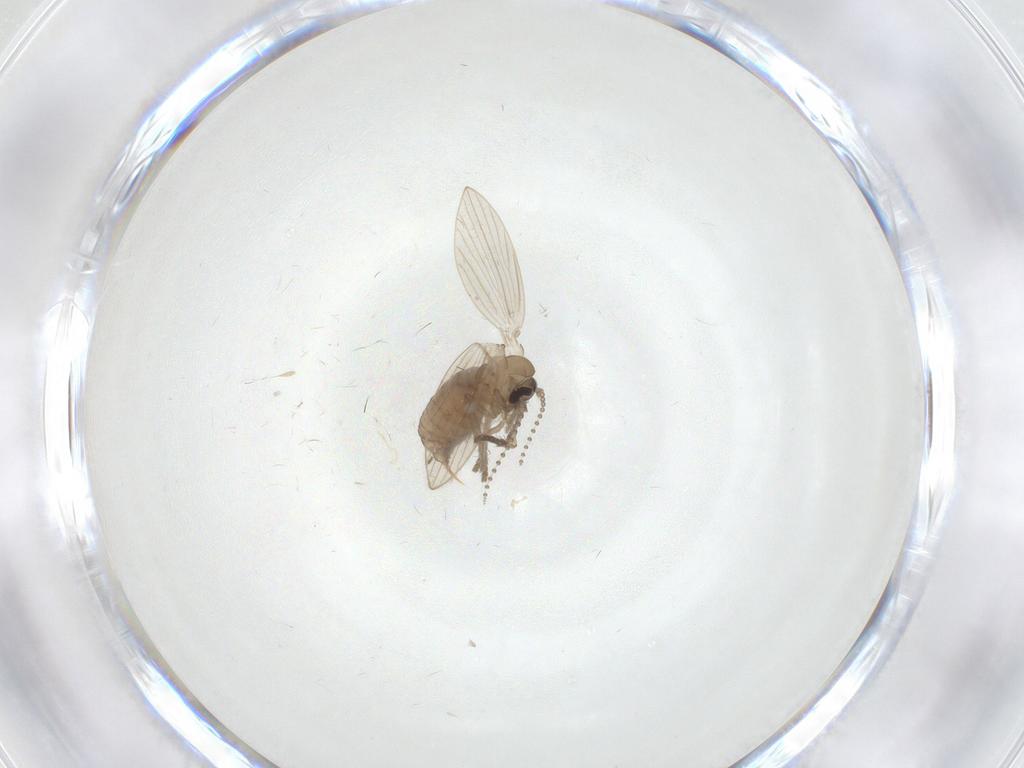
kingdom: Animalia
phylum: Arthropoda
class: Insecta
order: Diptera
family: Psychodidae
